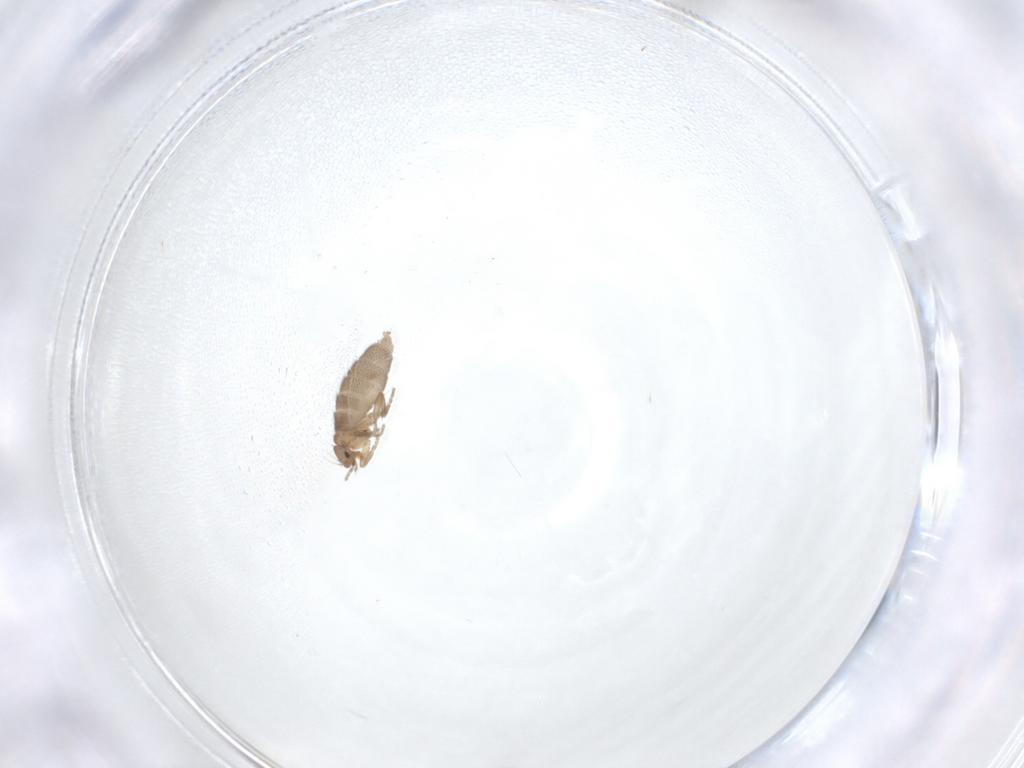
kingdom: Animalia
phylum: Arthropoda
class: Insecta
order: Diptera
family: Cecidomyiidae
